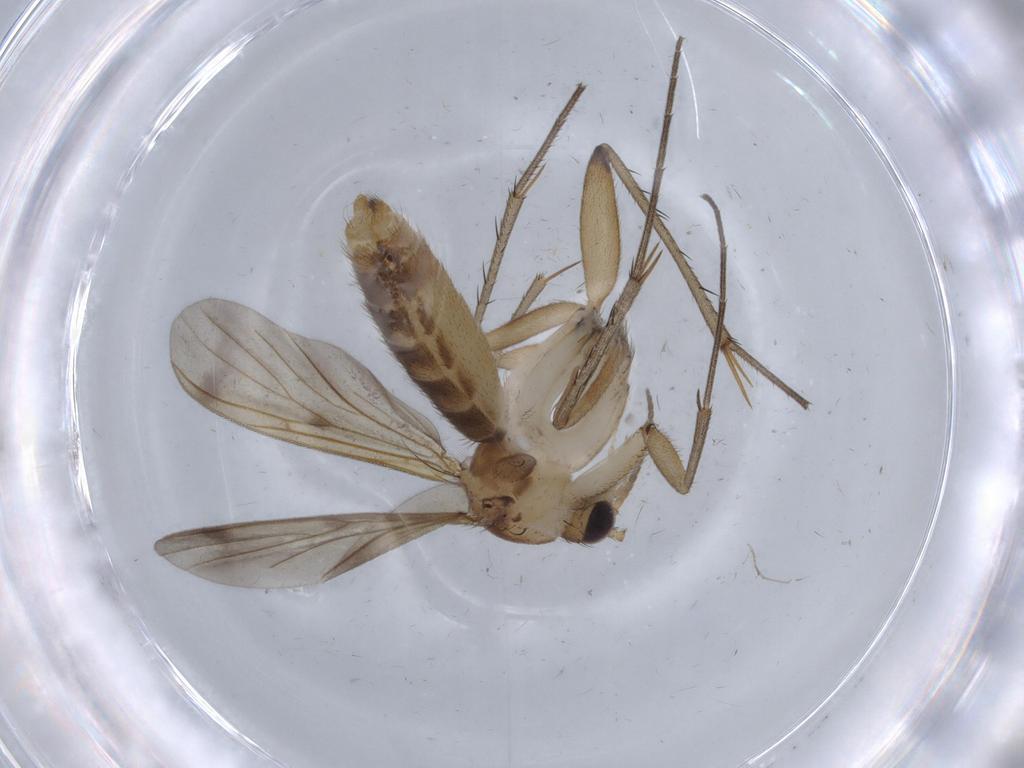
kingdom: Animalia
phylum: Arthropoda
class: Insecta
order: Diptera
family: Mycetophilidae
